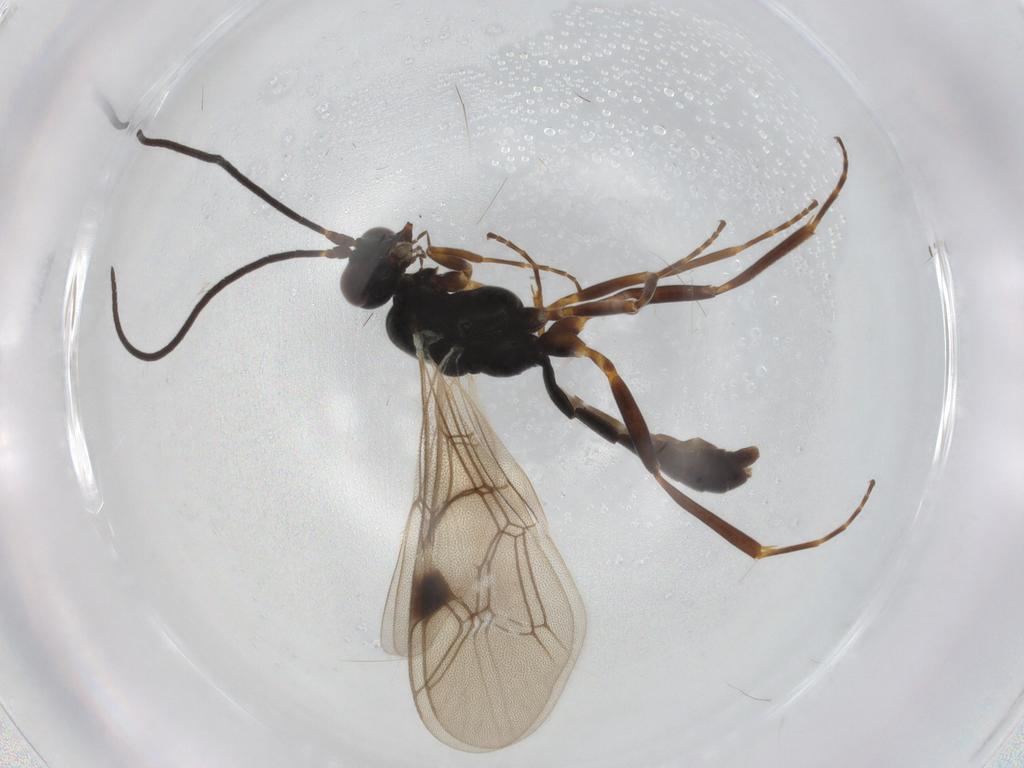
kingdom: Animalia
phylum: Arthropoda
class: Insecta
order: Hymenoptera
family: Ichneumonidae
